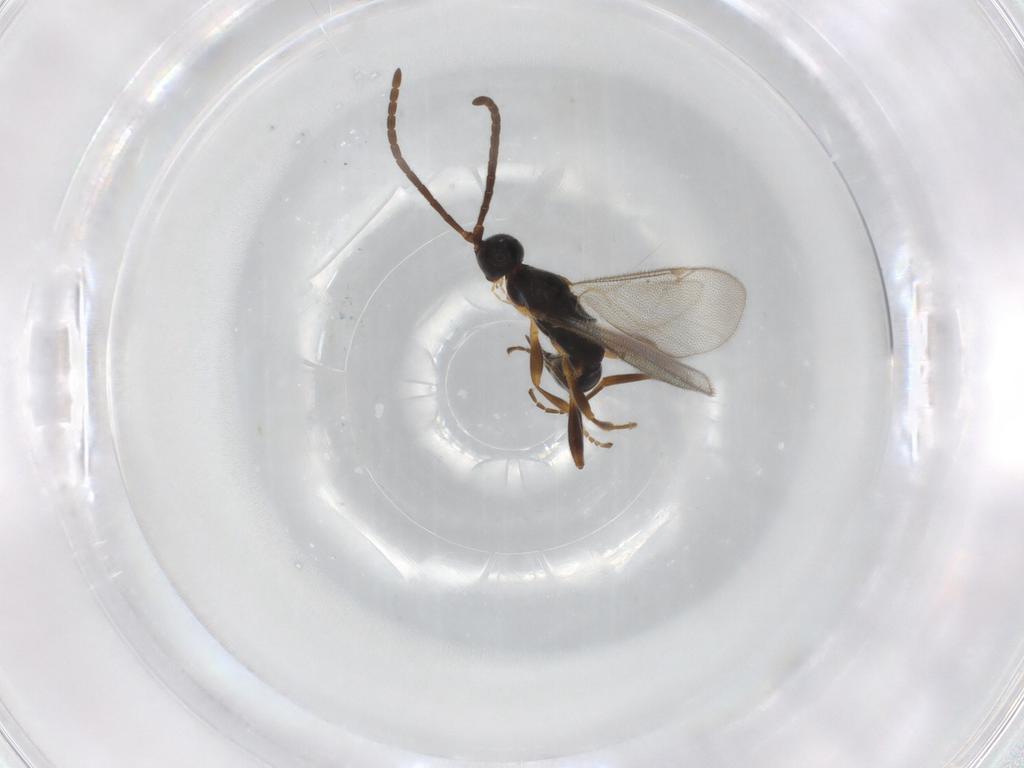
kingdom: Animalia
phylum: Arthropoda
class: Insecta
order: Hymenoptera
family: Proctotrupidae
